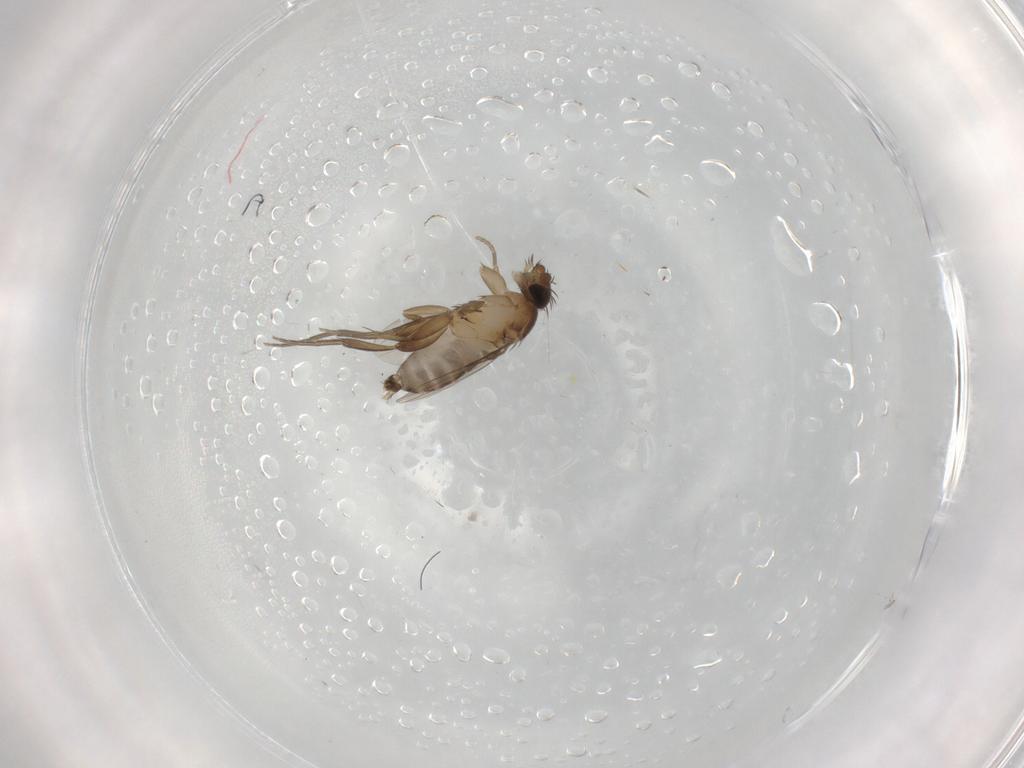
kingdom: Animalia
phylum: Arthropoda
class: Insecta
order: Diptera
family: Phoridae
